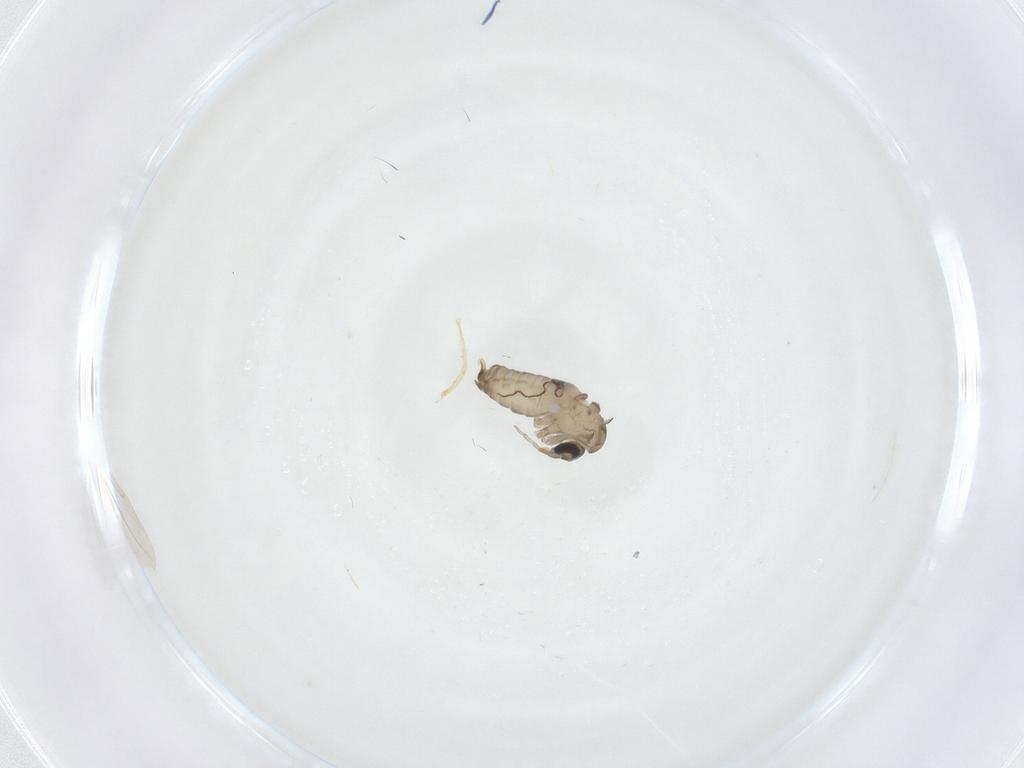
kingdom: Animalia
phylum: Arthropoda
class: Insecta
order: Diptera
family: Psychodidae
